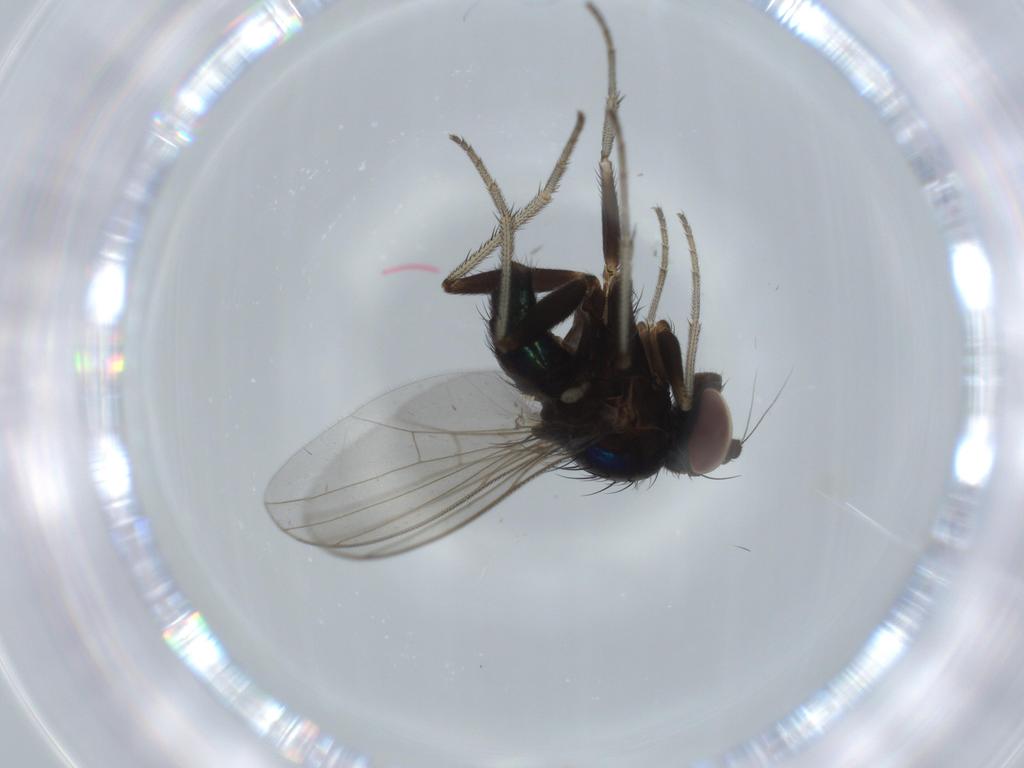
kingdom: Animalia
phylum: Arthropoda
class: Insecta
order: Diptera
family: Dolichopodidae
